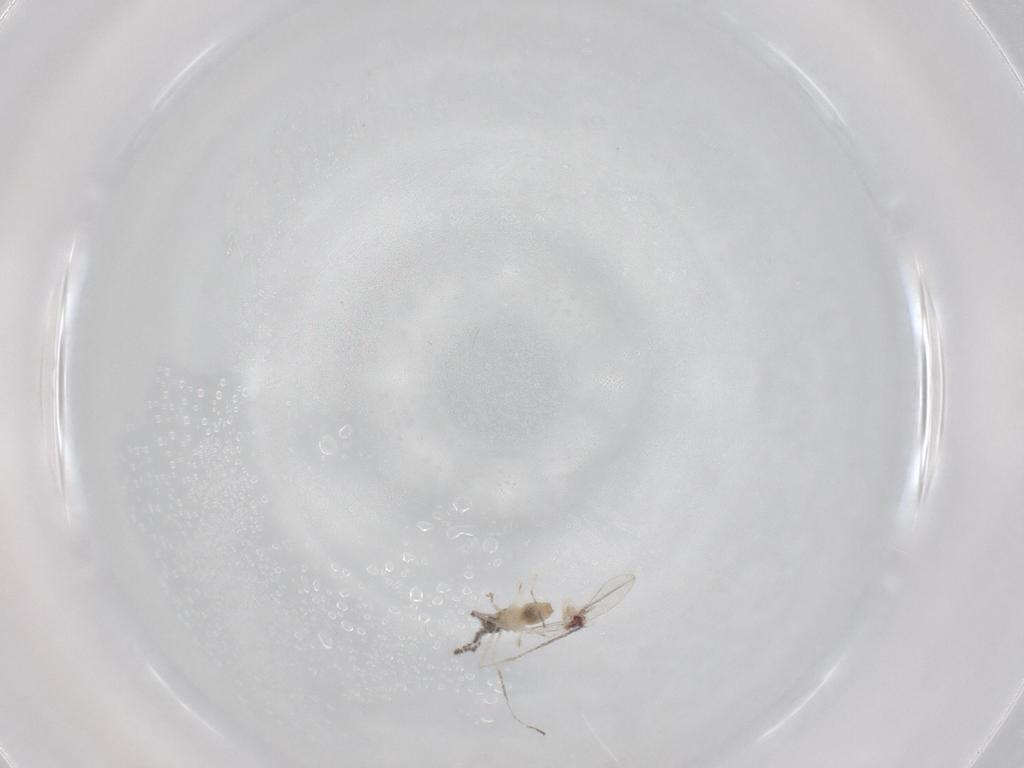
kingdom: Animalia
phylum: Arthropoda
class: Insecta
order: Diptera
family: Cecidomyiidae
